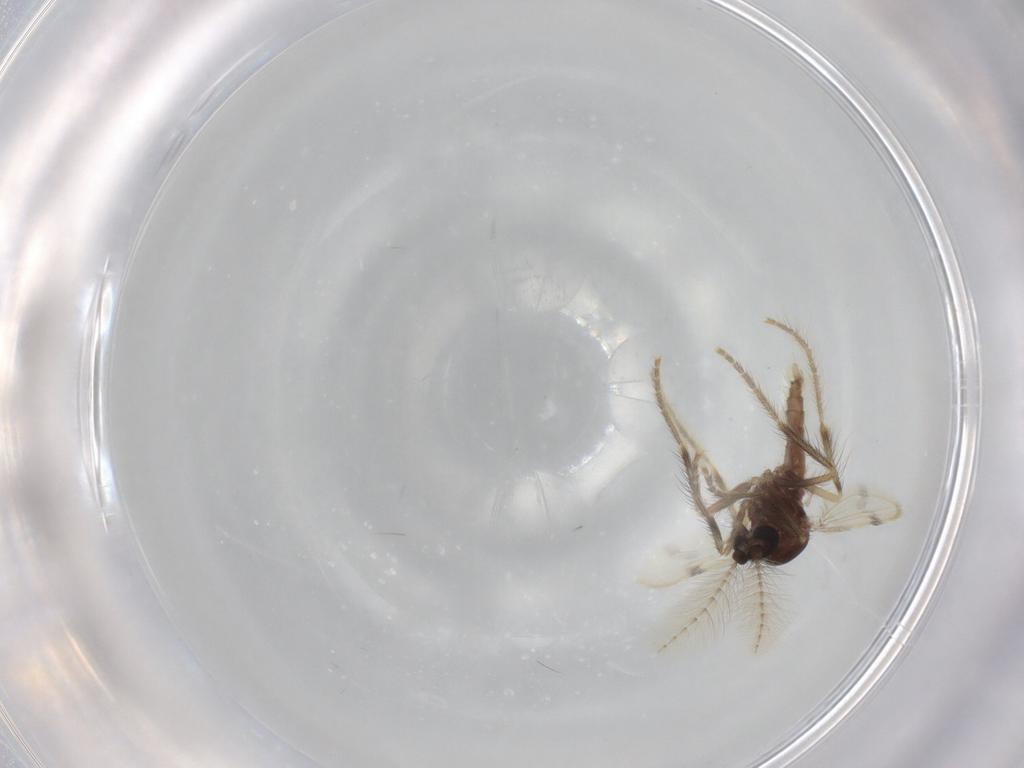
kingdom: Animalia
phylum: Arthropoda
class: Insecta
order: Diptera
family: Corethrellidae
